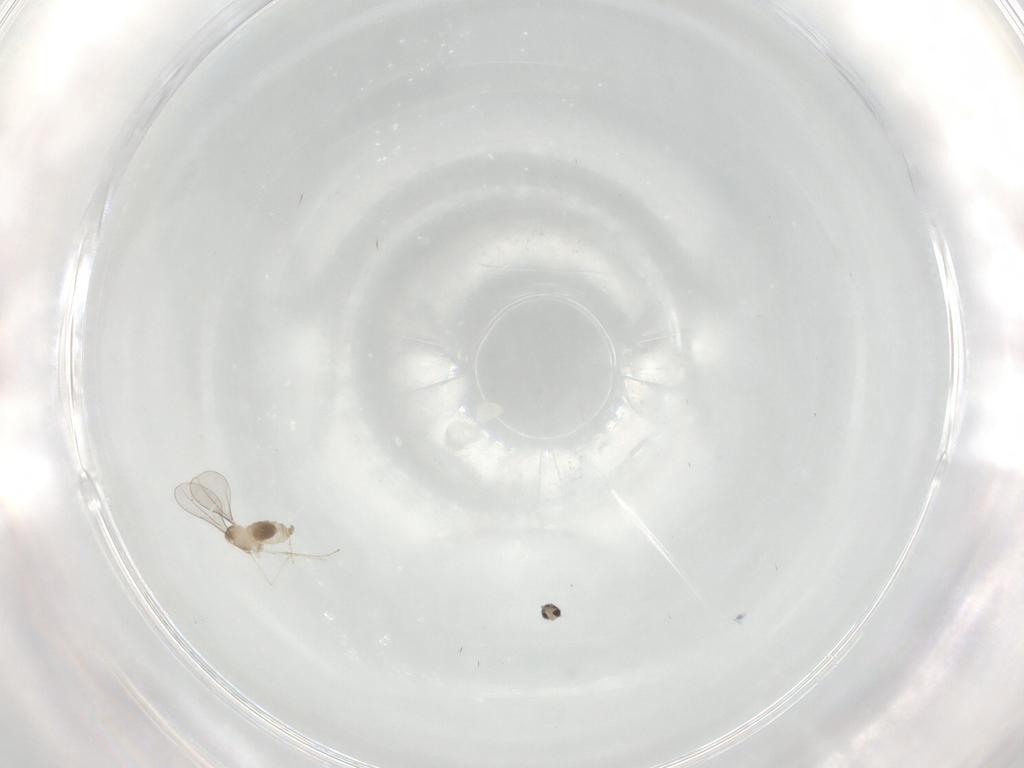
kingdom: Animalia
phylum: Arthropoda
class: Insecta
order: Diptera
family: Cecidomyiidae
